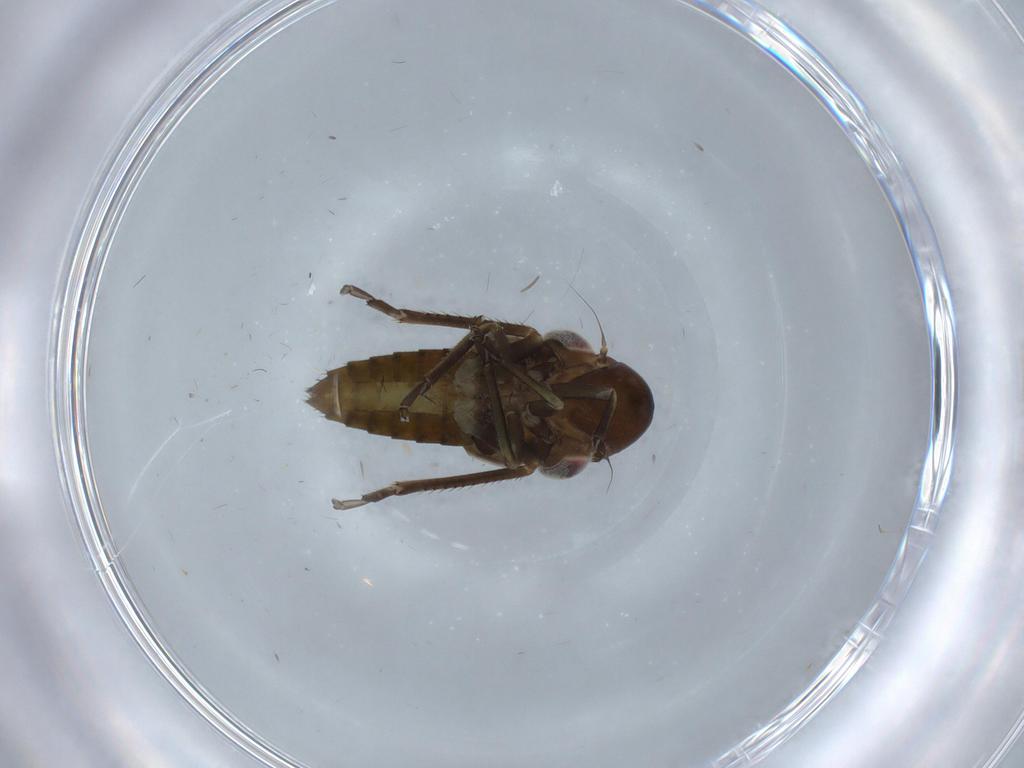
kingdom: Animalia
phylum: Arthropoda
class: Insecta
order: Hemiptera
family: Cicadellidae
